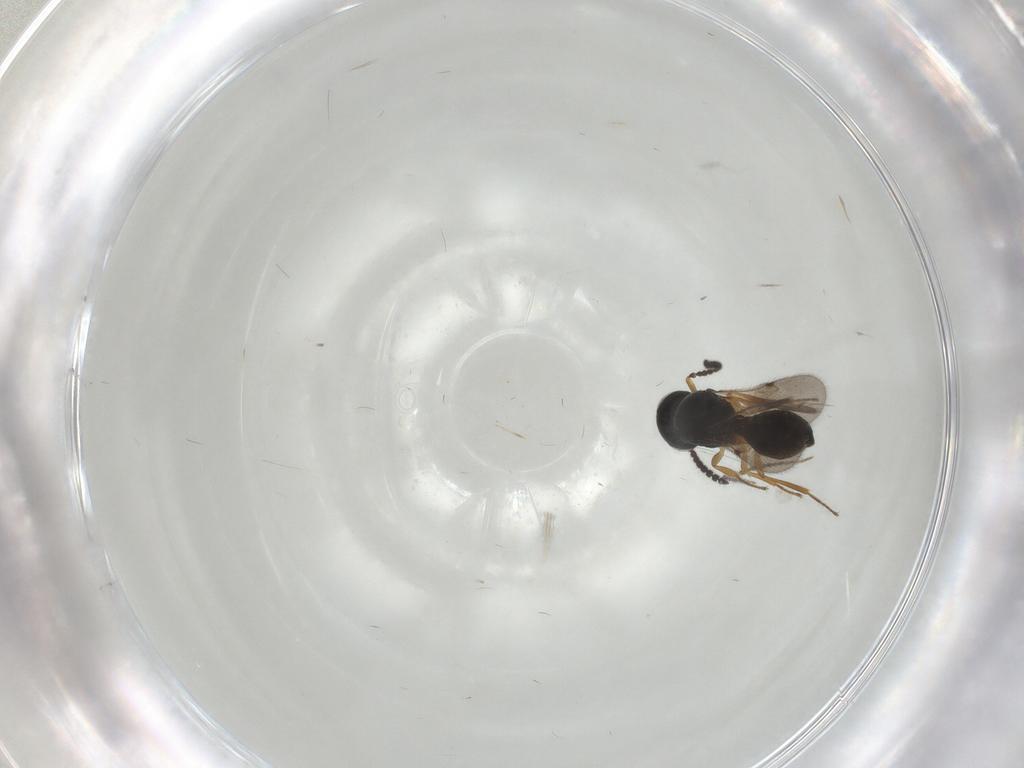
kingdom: Animalia
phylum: Arthropoda
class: Insecta
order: Hymenoptera
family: Scelionidae
